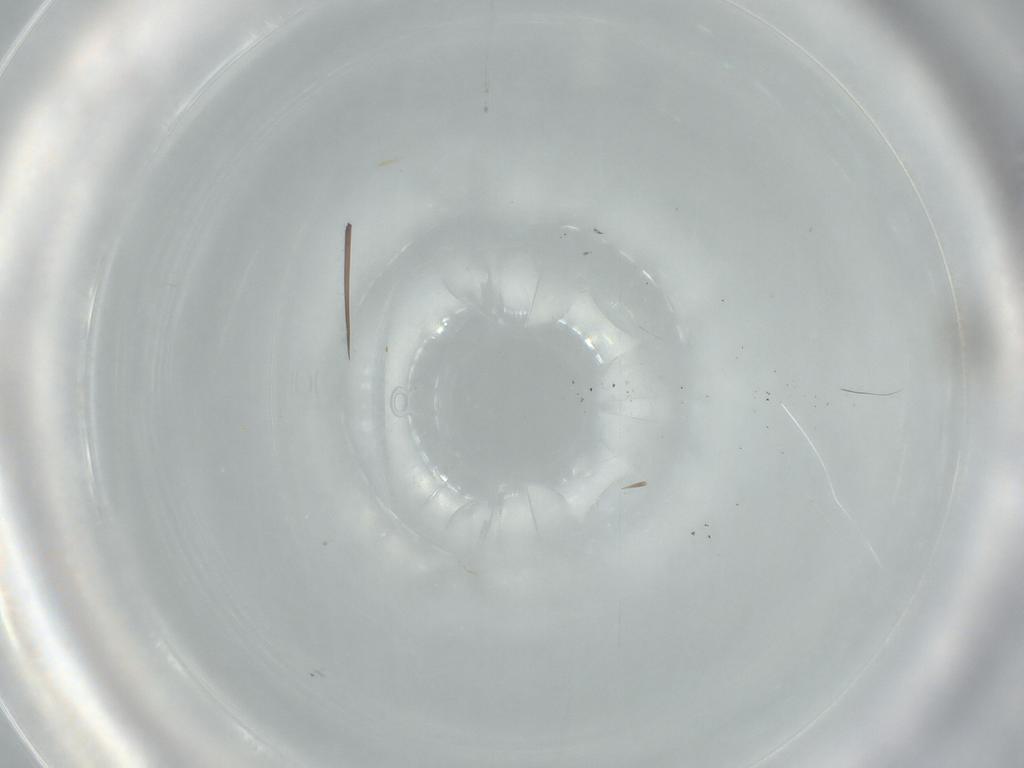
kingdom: Animalia
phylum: Arthropoda
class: Insecta
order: Diptera
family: Cecidomyiidae
